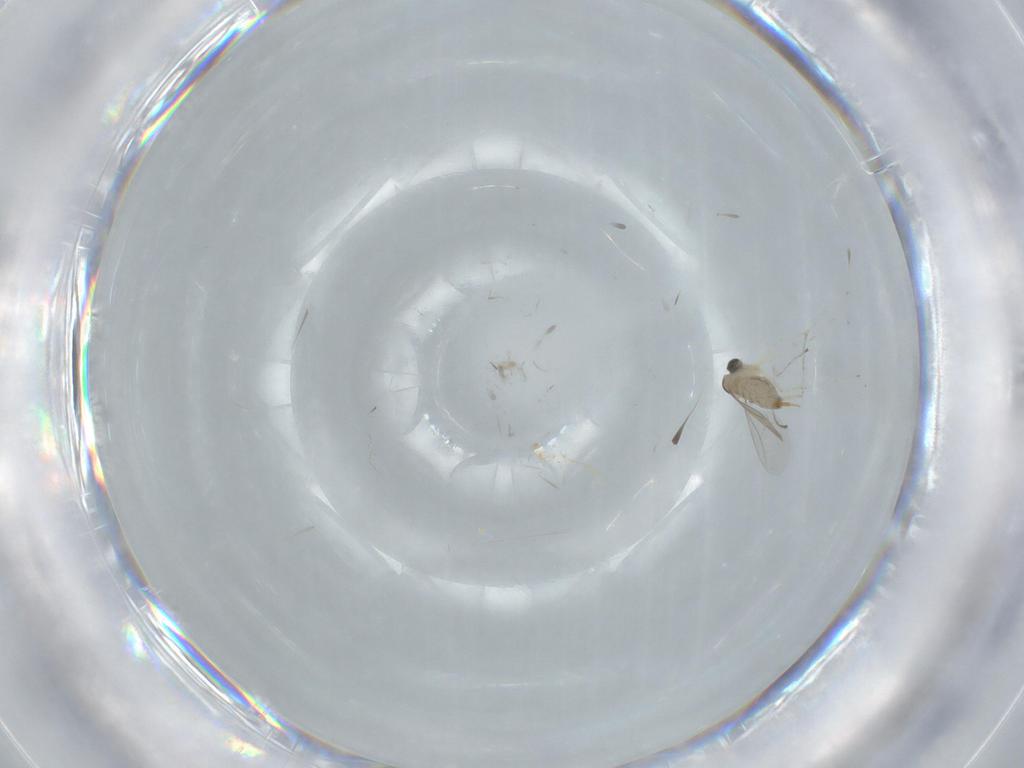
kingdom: Animalia
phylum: Arthropoda
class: Insecta
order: Diptera
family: Cecidomyiidae
